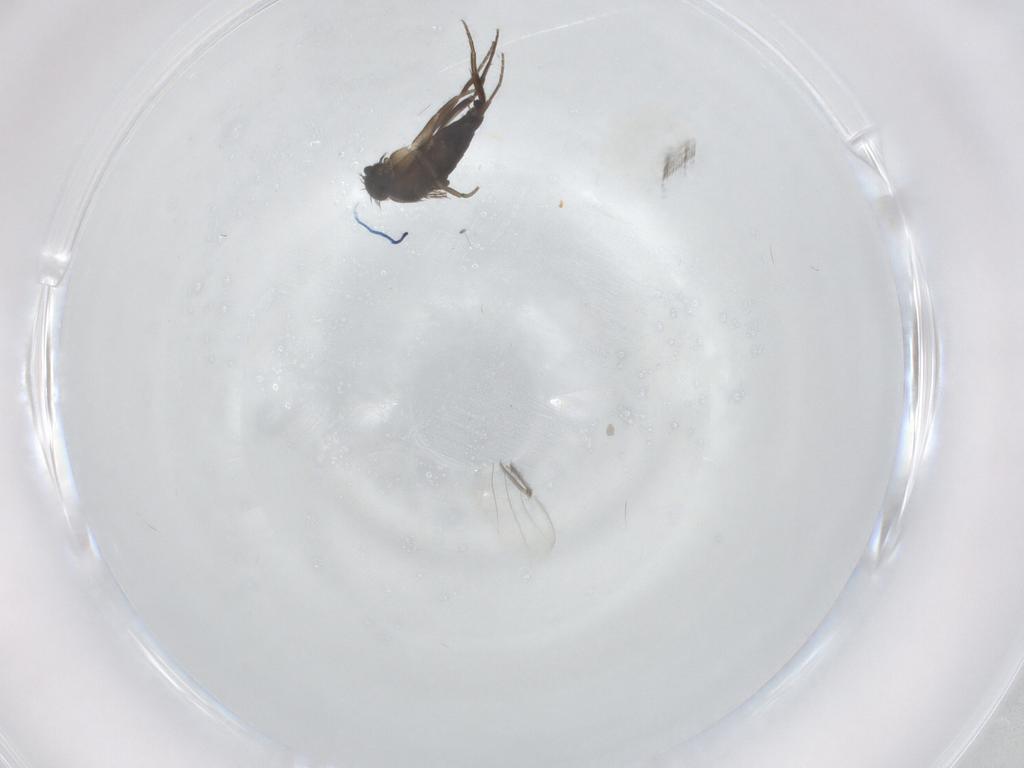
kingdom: Animalia
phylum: Arthropoda
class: Insecta
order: Diptera
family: Phoridae
